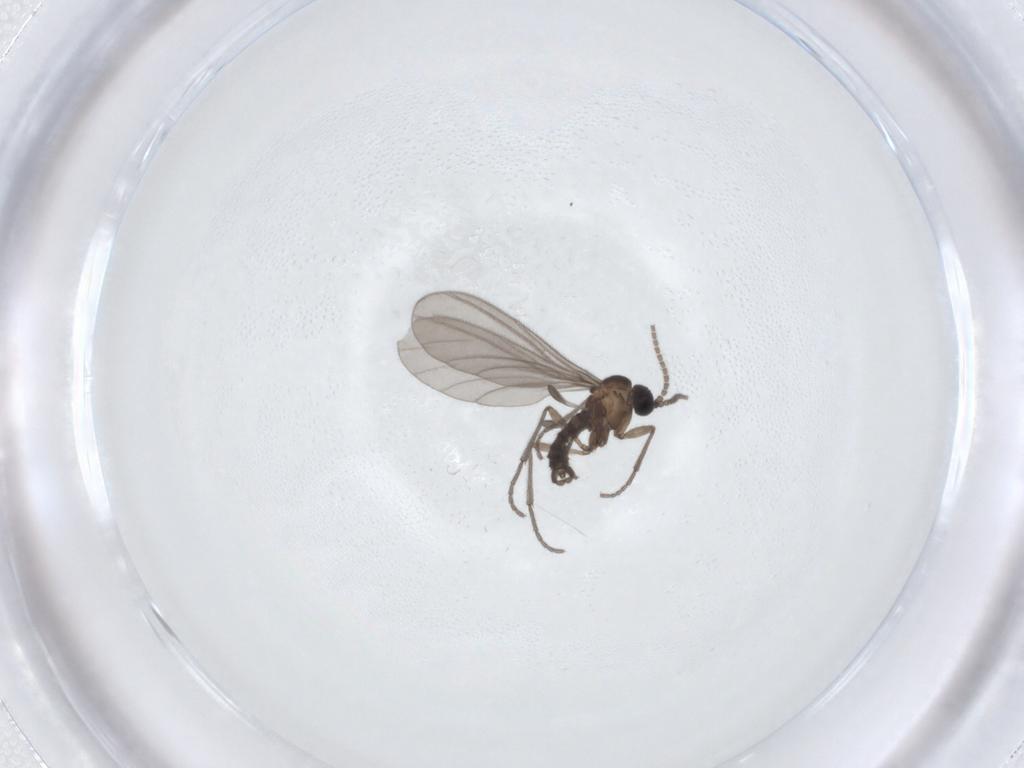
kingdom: Animalia
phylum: Arthropoda
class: Insecta
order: Diptera
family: Sciaridae
